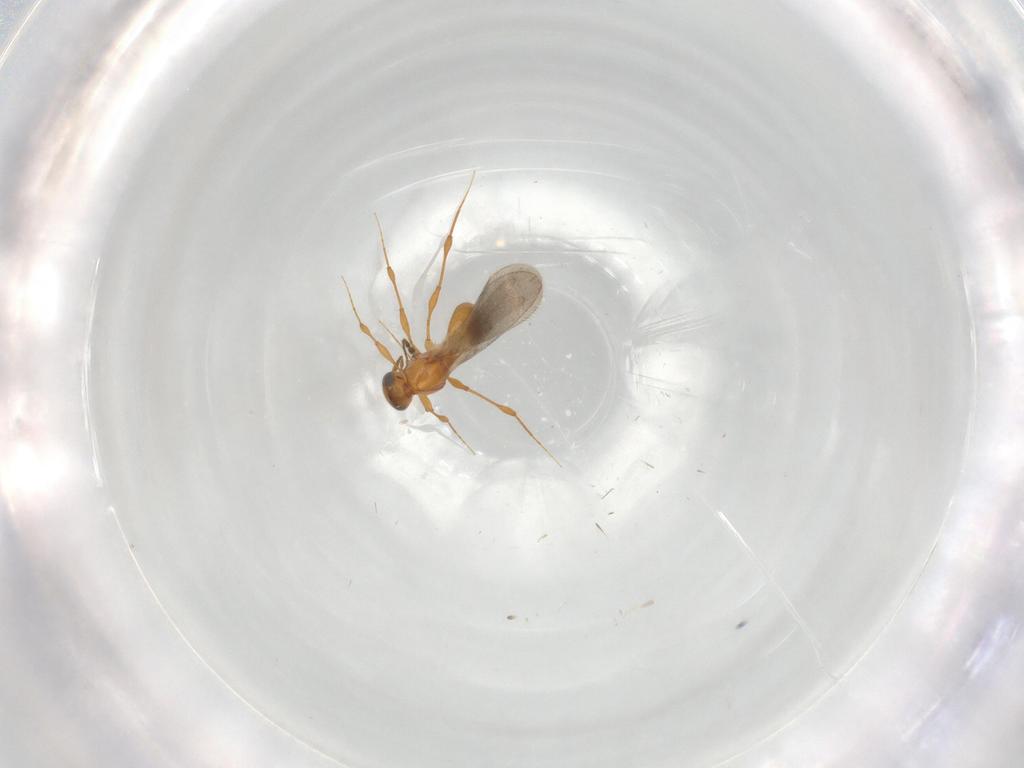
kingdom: Animalia
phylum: Arthropoda
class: Insecta
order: Hymenoptera
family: Platygastridae
